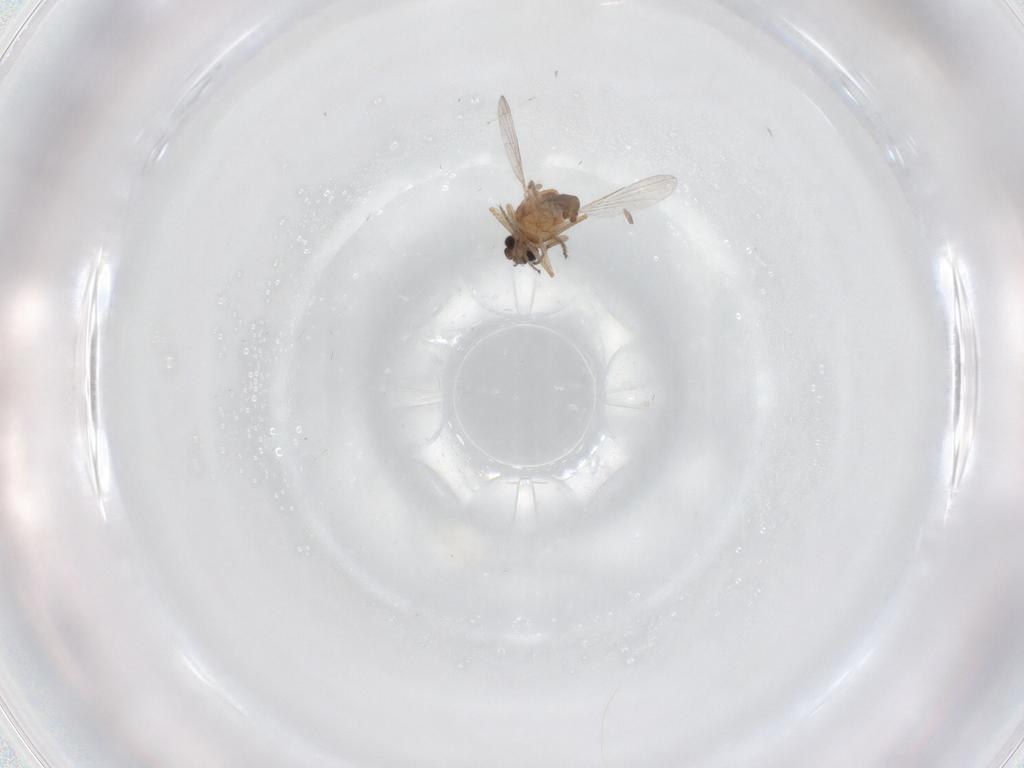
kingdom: Animalia
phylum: Arthropoda
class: Insecta
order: Diptera
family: Ceratopogonidae
